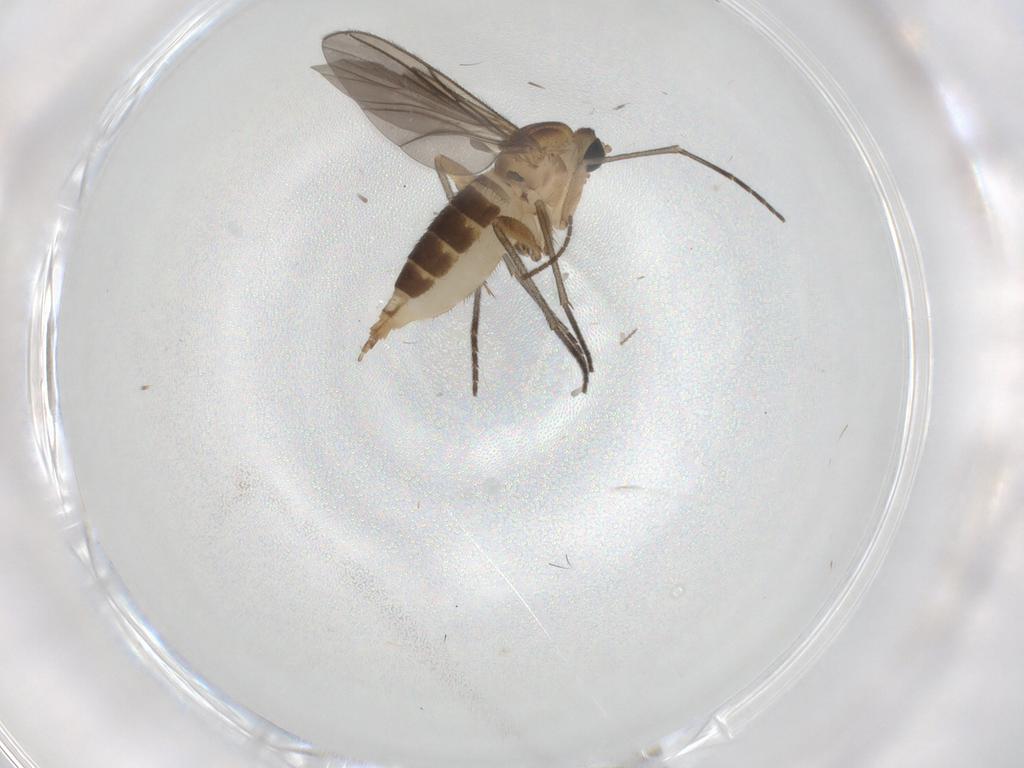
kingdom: Animalia
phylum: Arthropoda
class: Insecta
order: Diptera
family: Sciaridae
